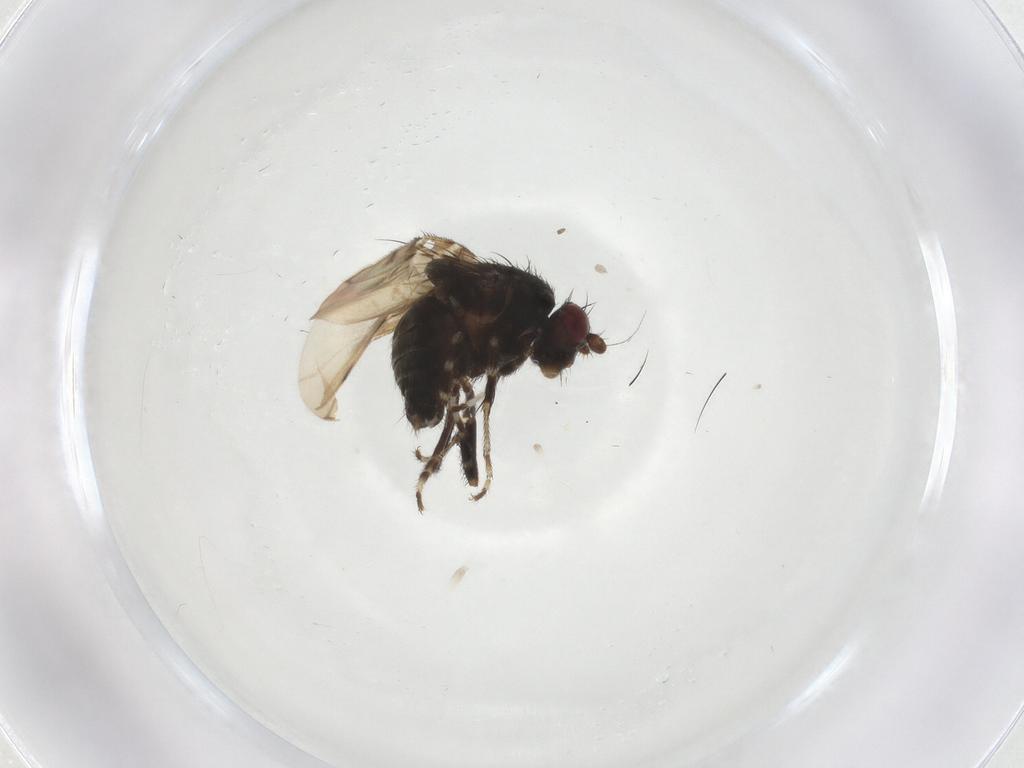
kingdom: Animalia
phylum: Arthropoda
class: Insecta
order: Diptera
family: Sphaeroceridae
